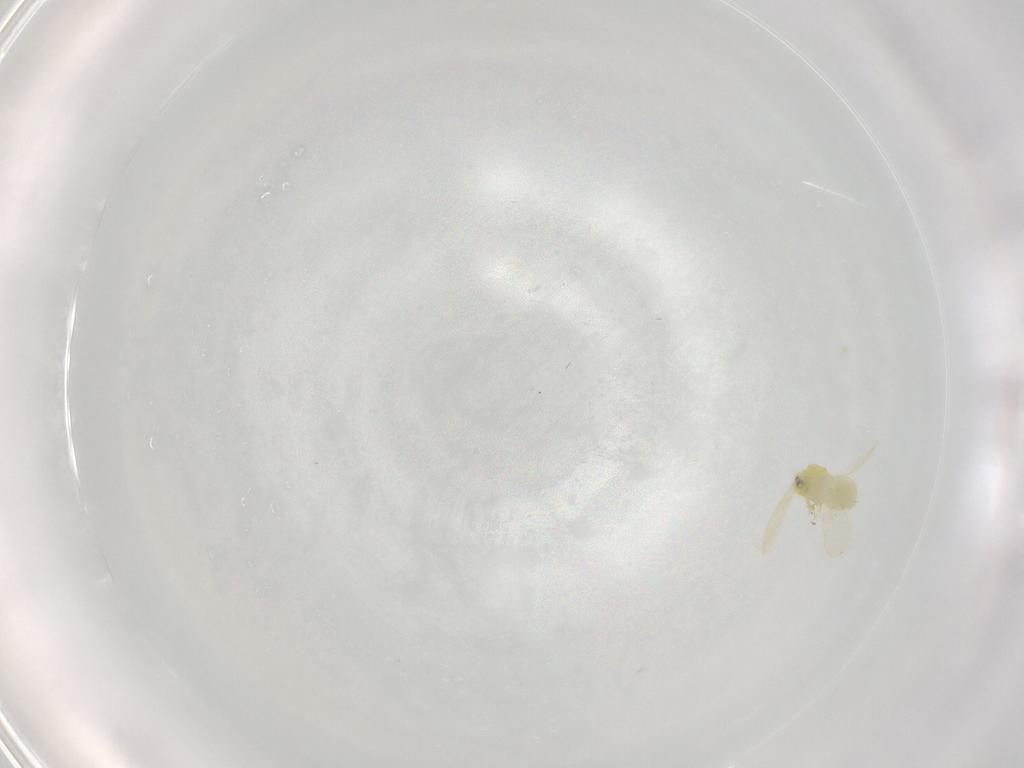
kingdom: Animalia
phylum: Arthropoda
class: Insecta
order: Hemiptera
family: Aleyrodidae
